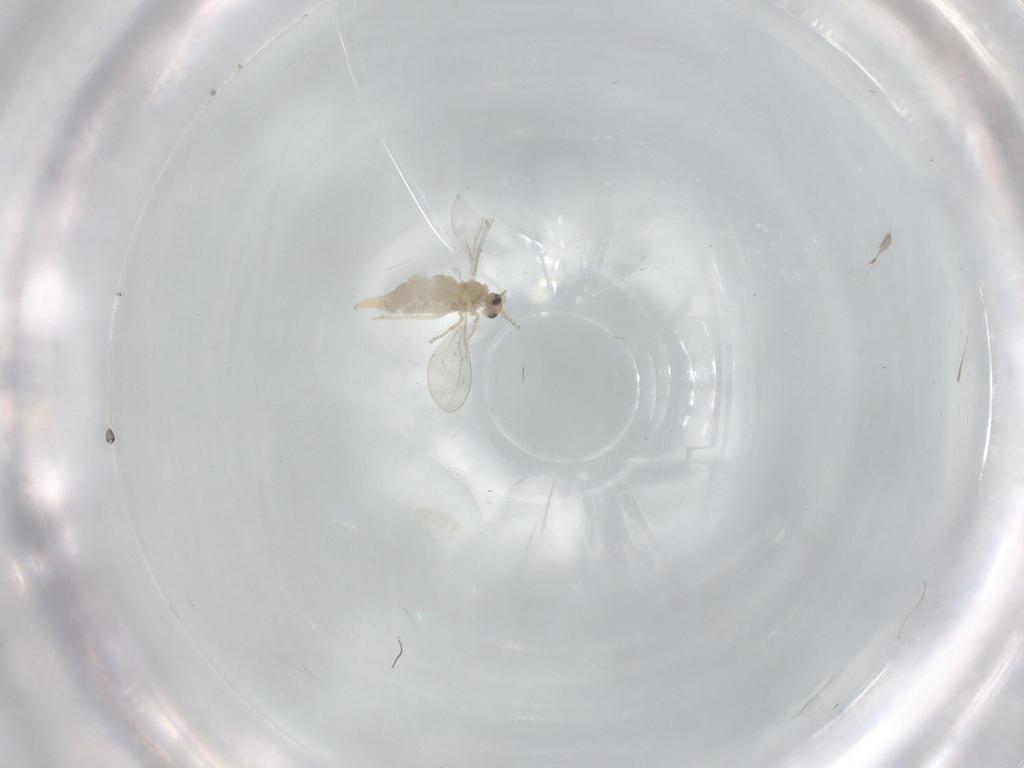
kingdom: Animalia
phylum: Arthropoda
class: Insecta
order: Diptera
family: Cecidomyiidae
